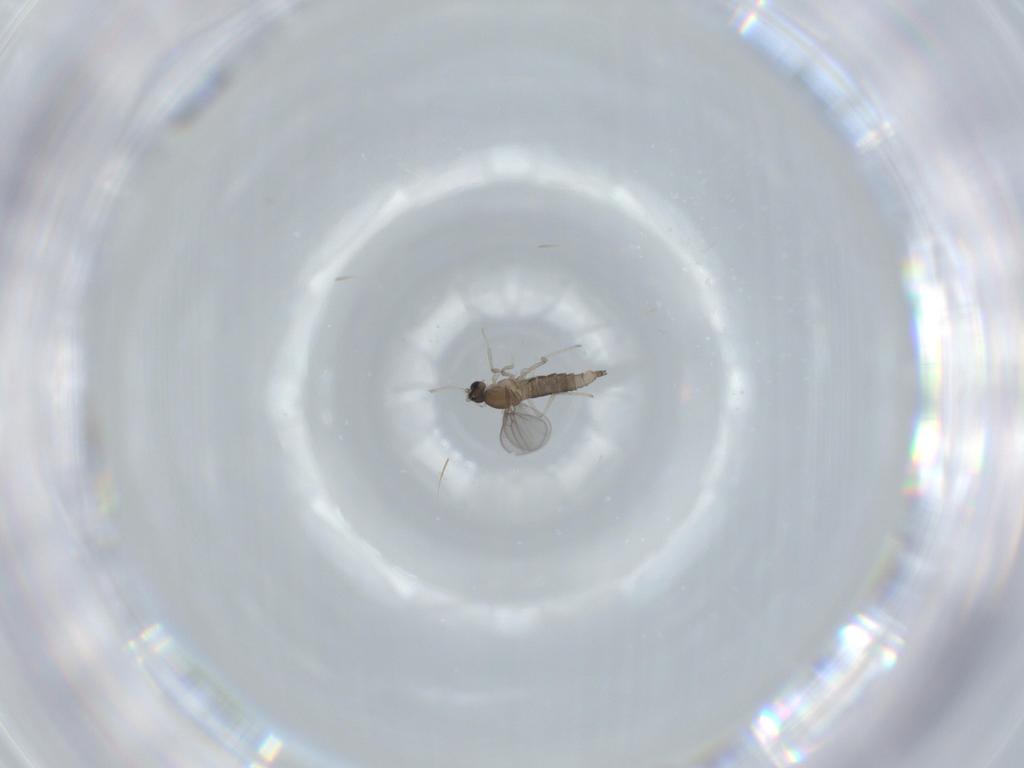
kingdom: Animalia
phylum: Arthropoda
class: Insecta
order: Diptera
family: Cecidomyiidae
